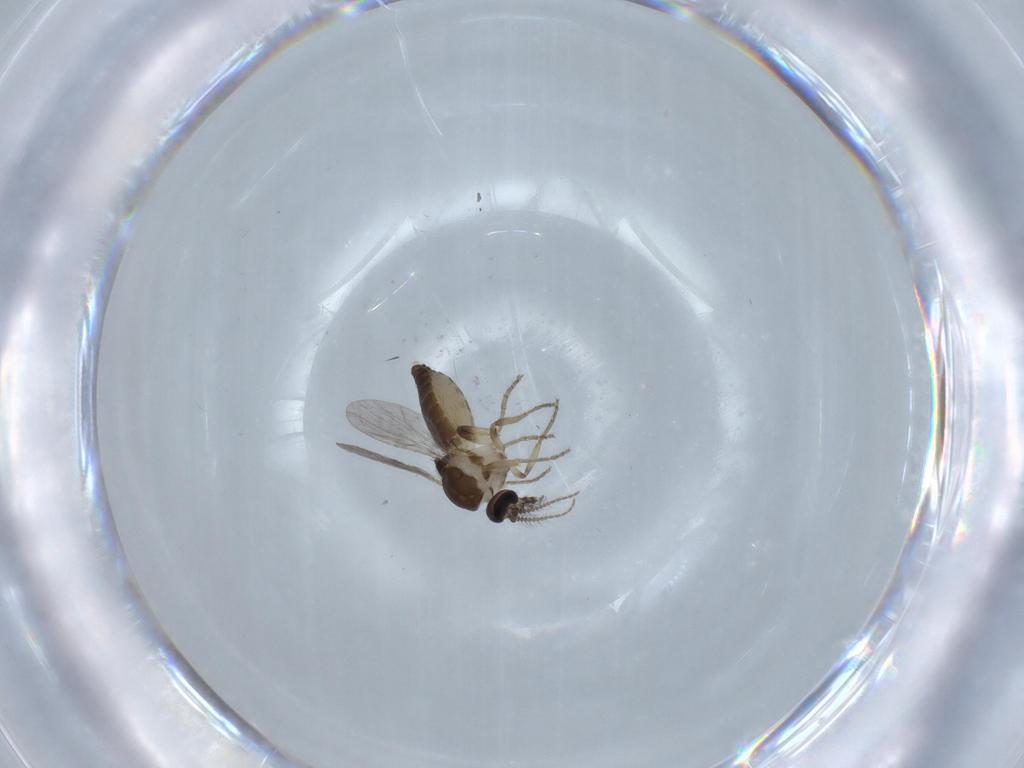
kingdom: Animalia
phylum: Arthropoda
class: Insecta
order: Diptera
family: Ceratopogonidae
